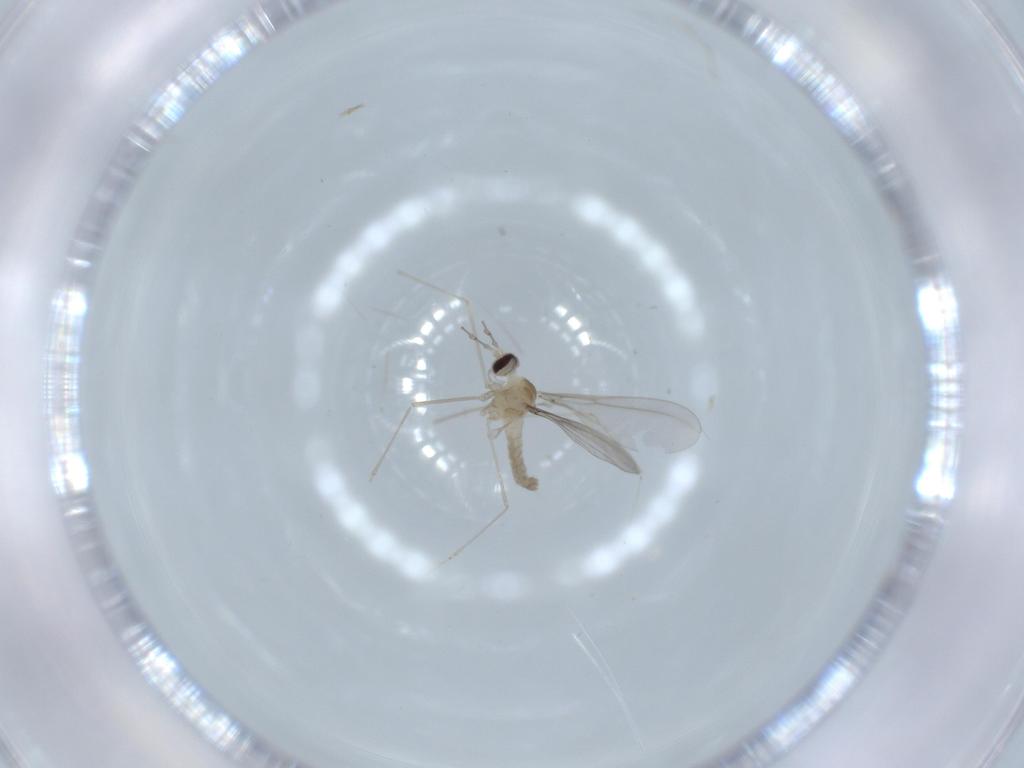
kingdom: Animalia
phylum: Arthropoda
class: Insecta
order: Diptera
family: Cecidomyiidae
